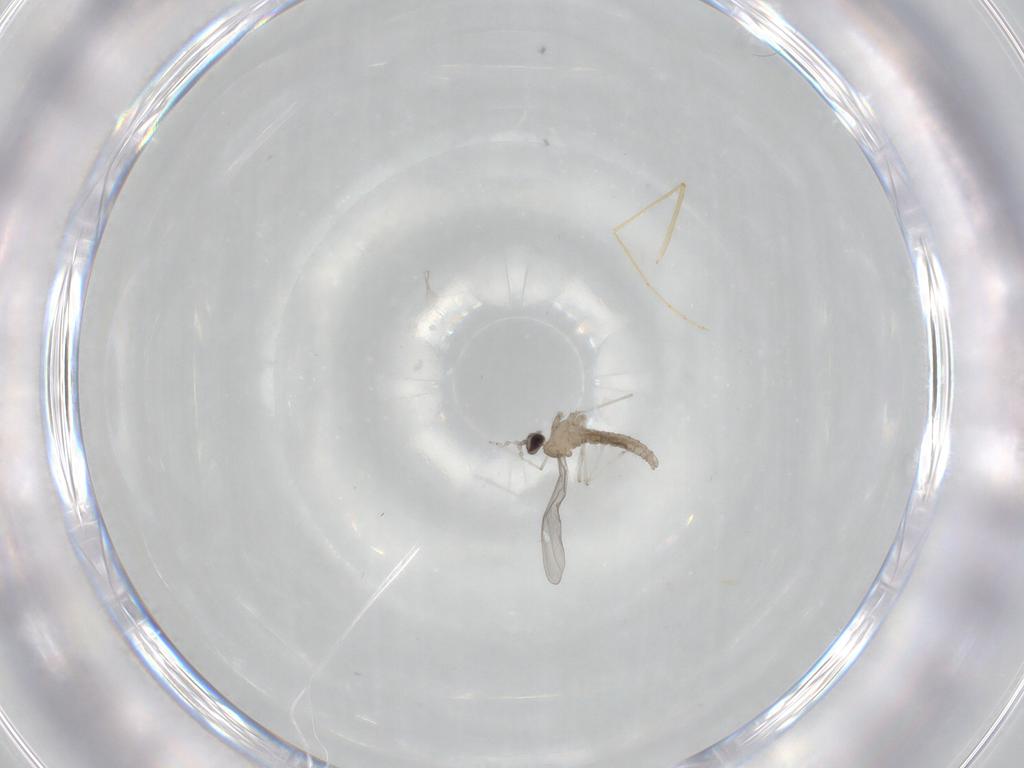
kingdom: Animalia
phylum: Arthropoda
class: Insecta
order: Diptera
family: Cecidomyiidae
